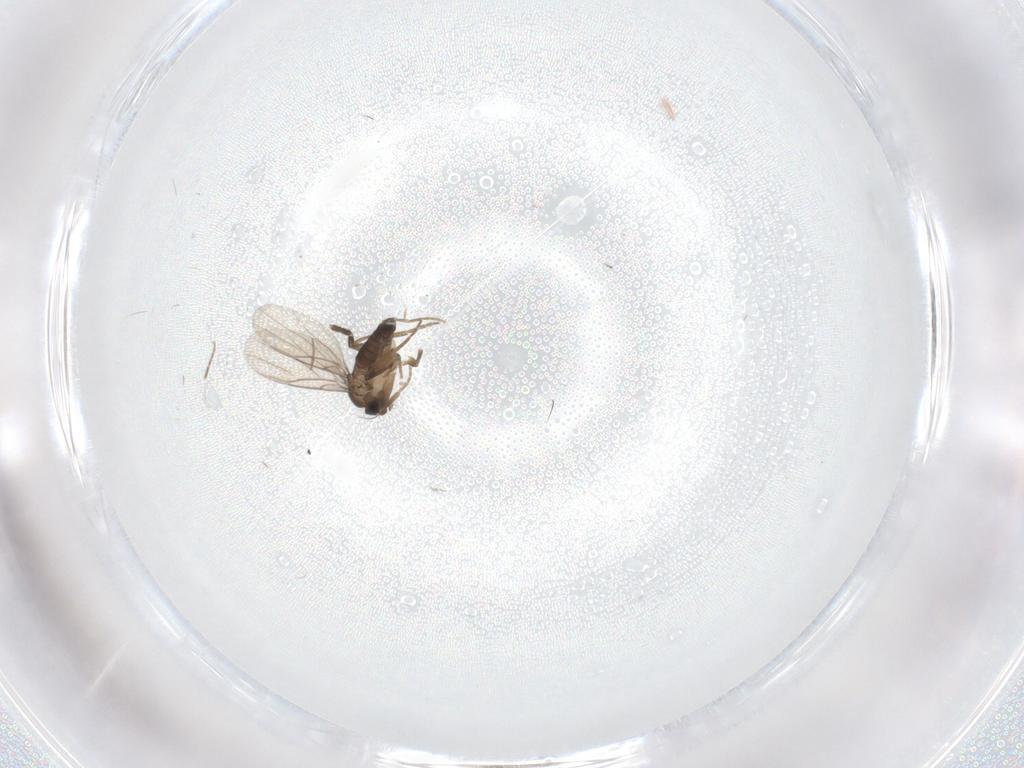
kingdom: Animalia
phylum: Arthropoda
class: Insecta
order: Diptera
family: Phoridae
